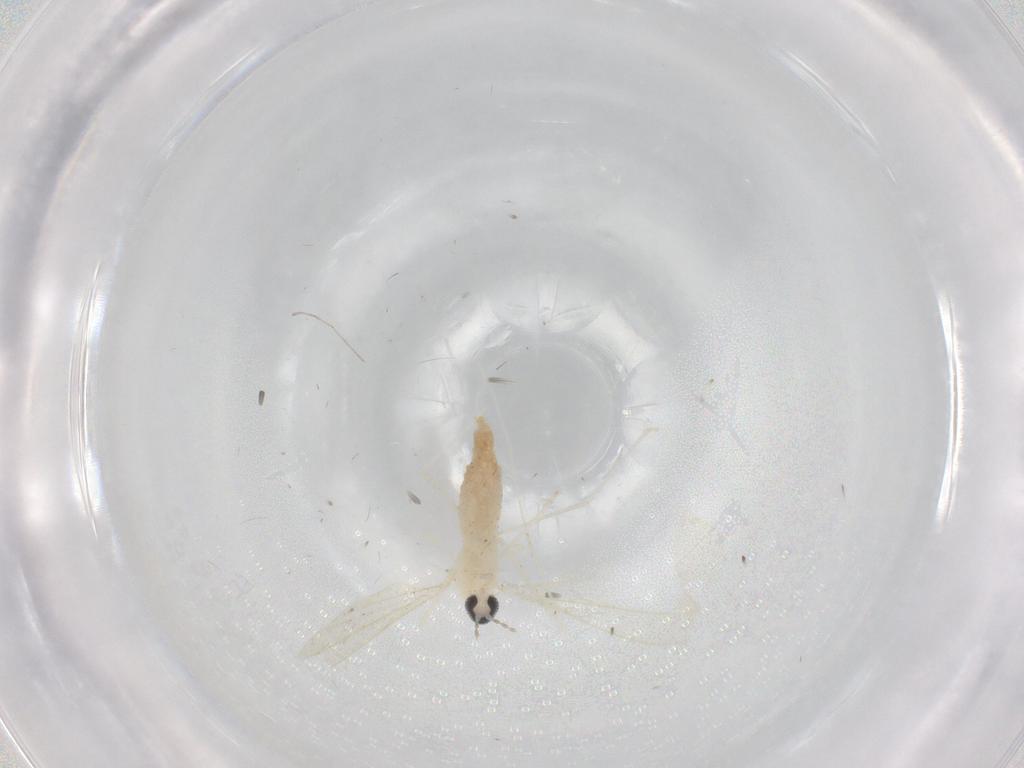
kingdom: Animalia
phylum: Arthropoda
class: Insecta
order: Diptera
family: Cecidomyiidae
